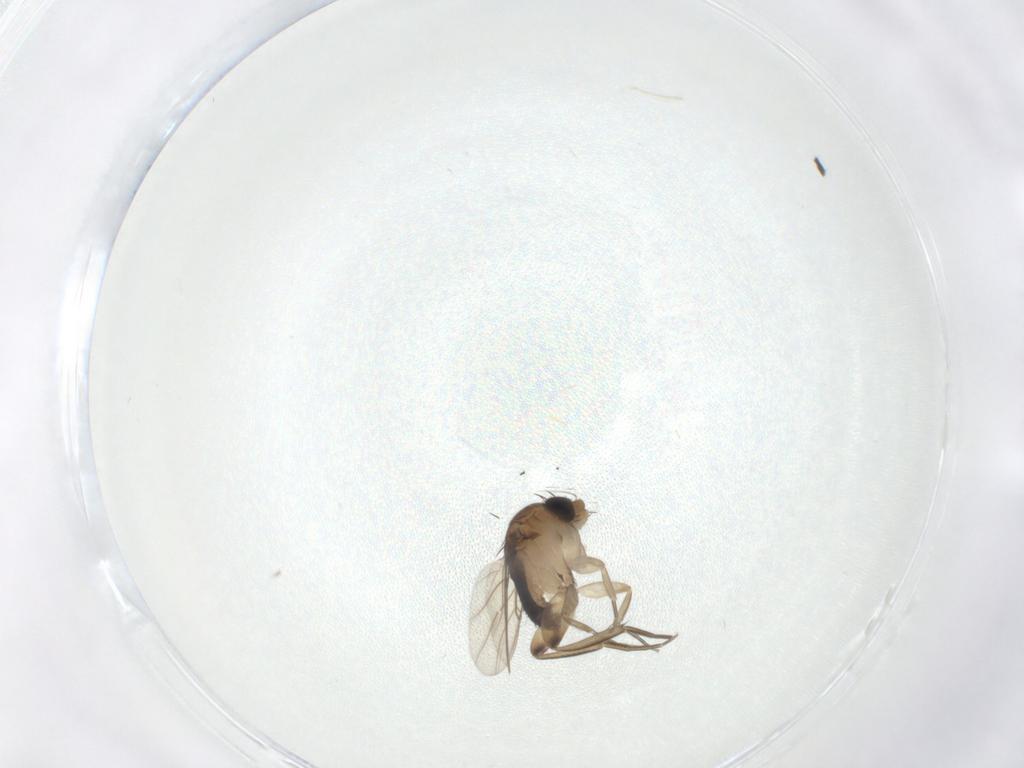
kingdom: Animalia
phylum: Arthropoda
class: Insecta
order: Diptera
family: Phoridae
